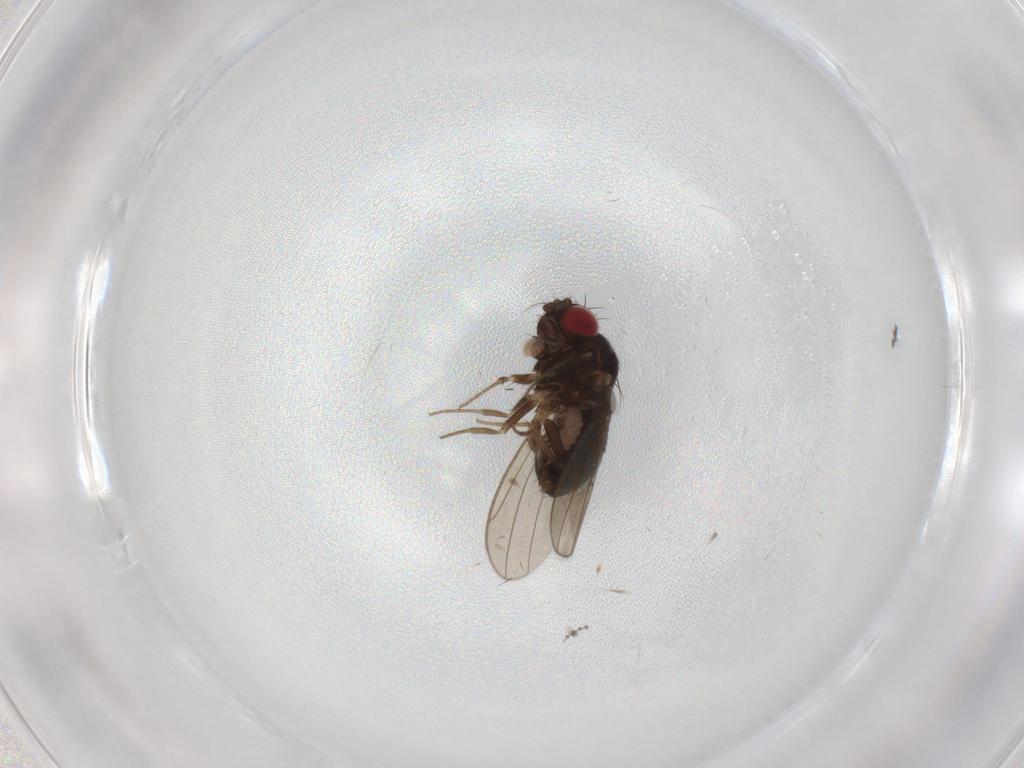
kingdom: Animalia
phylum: Arthropoda
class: Insecta
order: Diptera
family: Drosophilidae
